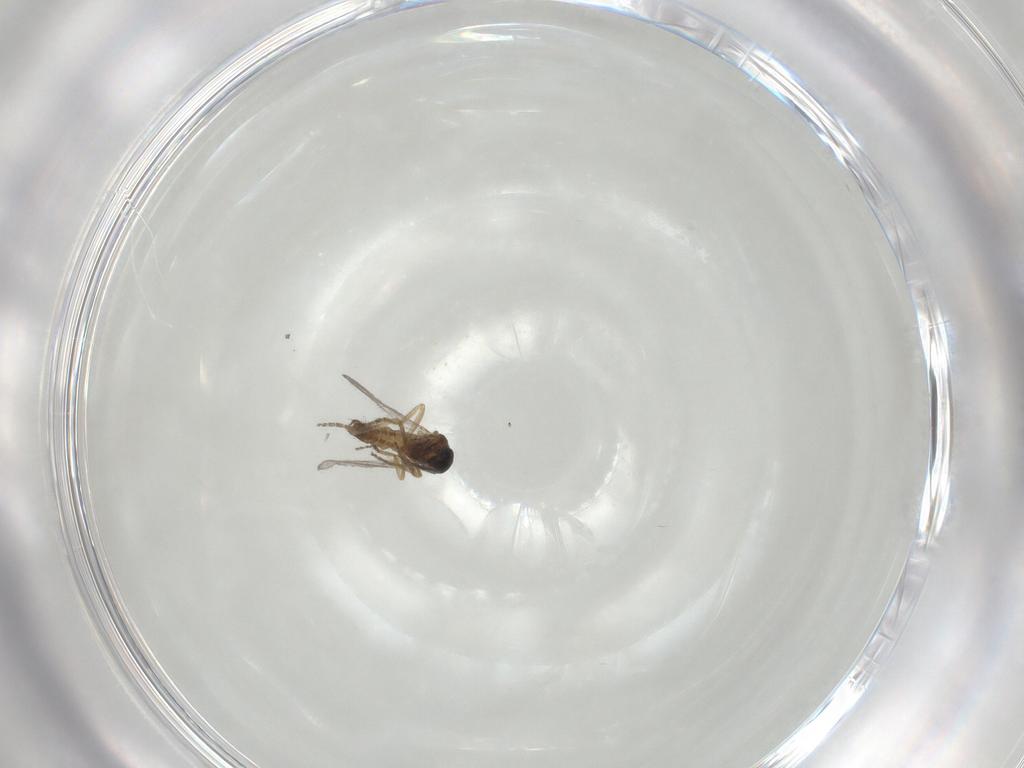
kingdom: Animalia
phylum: Arthropoda
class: Insecta
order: Diptera
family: Ceratopogonidae
